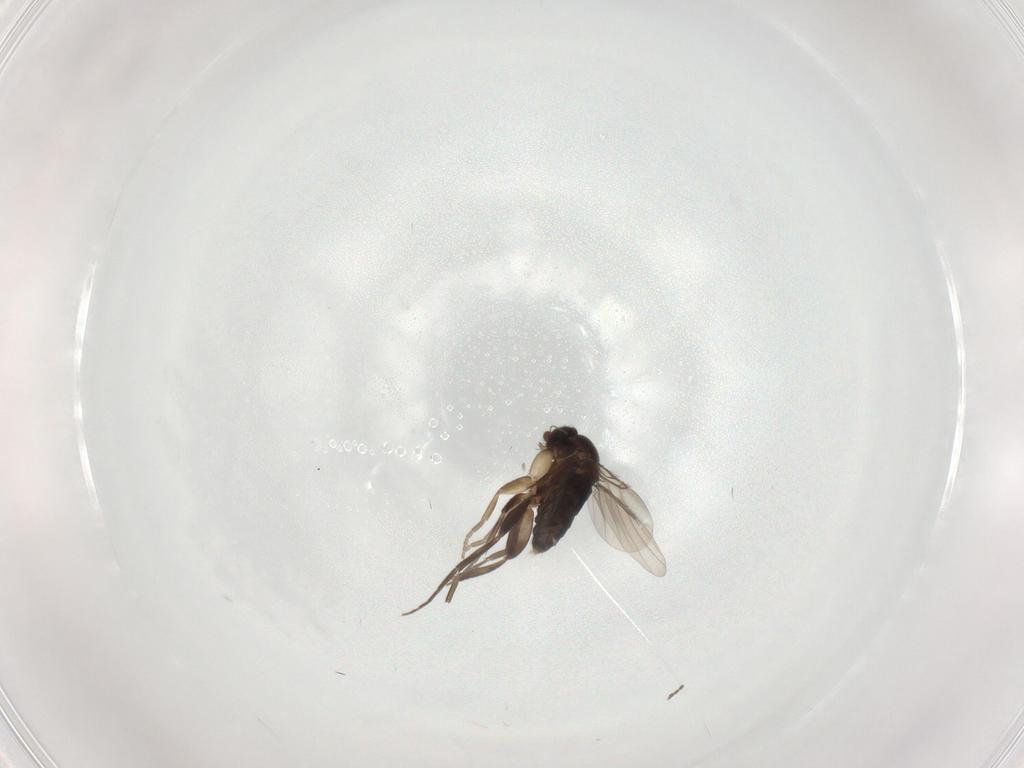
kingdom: Animalia
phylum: Arthropoda
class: Insecta
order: Diptera
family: Phoridae
